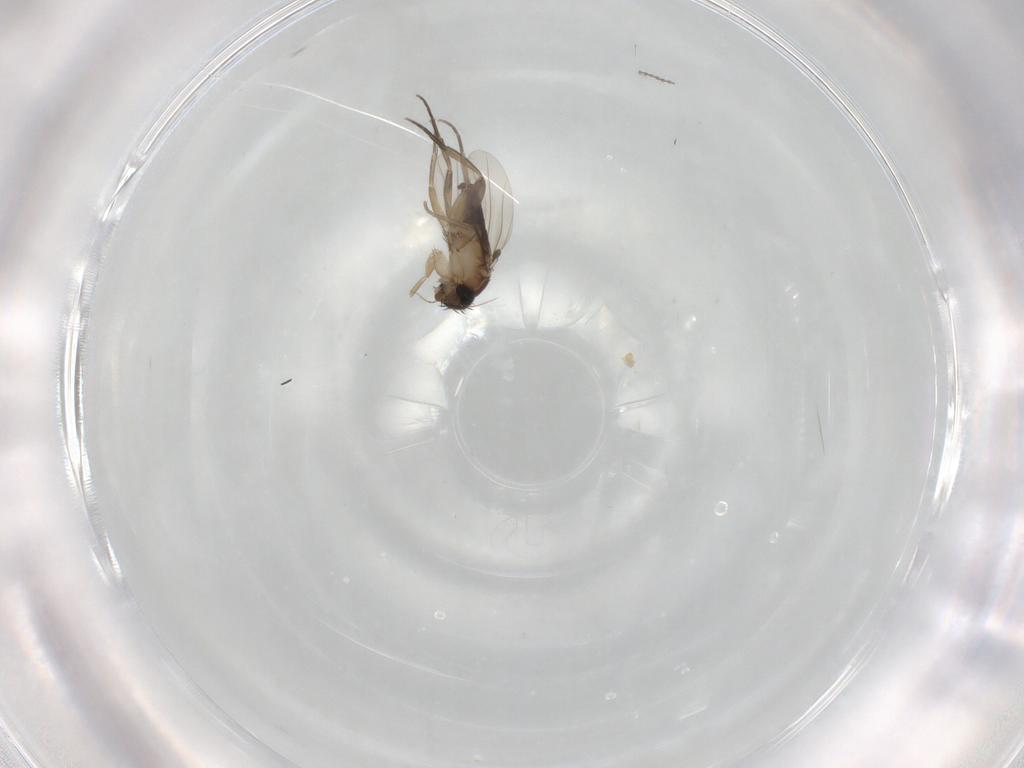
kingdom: Animalia
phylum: Arthropoda
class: Insecta
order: Diptera
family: Cecidomyiidae
